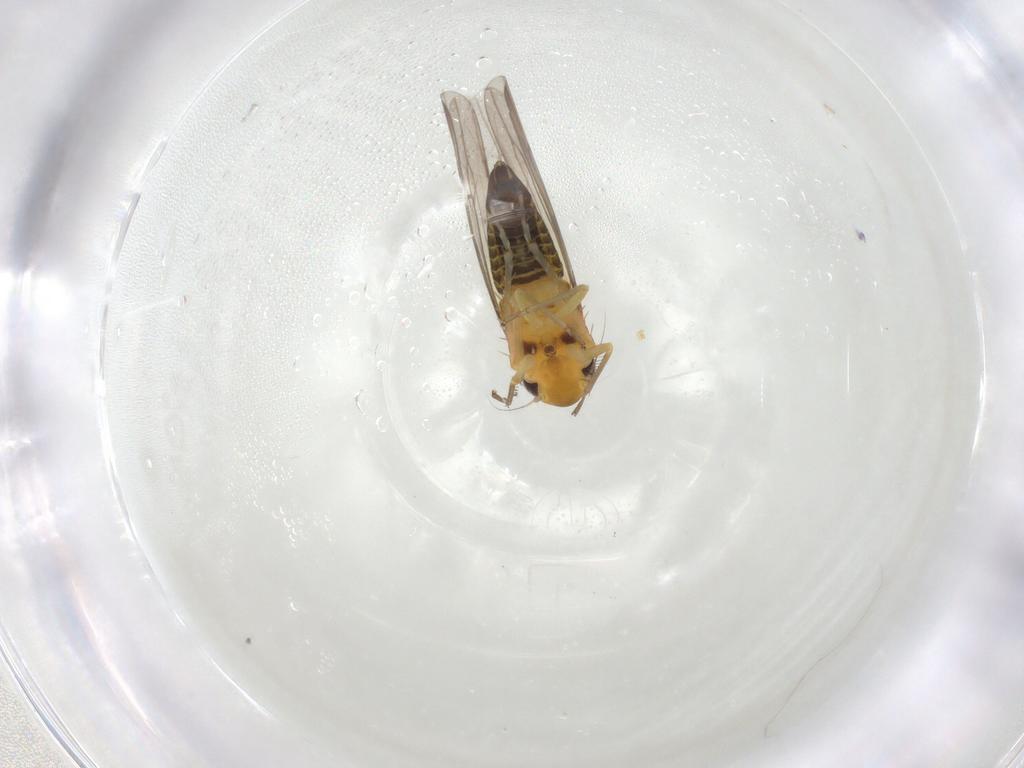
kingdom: Animalia
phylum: Arthropoda
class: Insecta
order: Hemiptera
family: Cicadellidae
